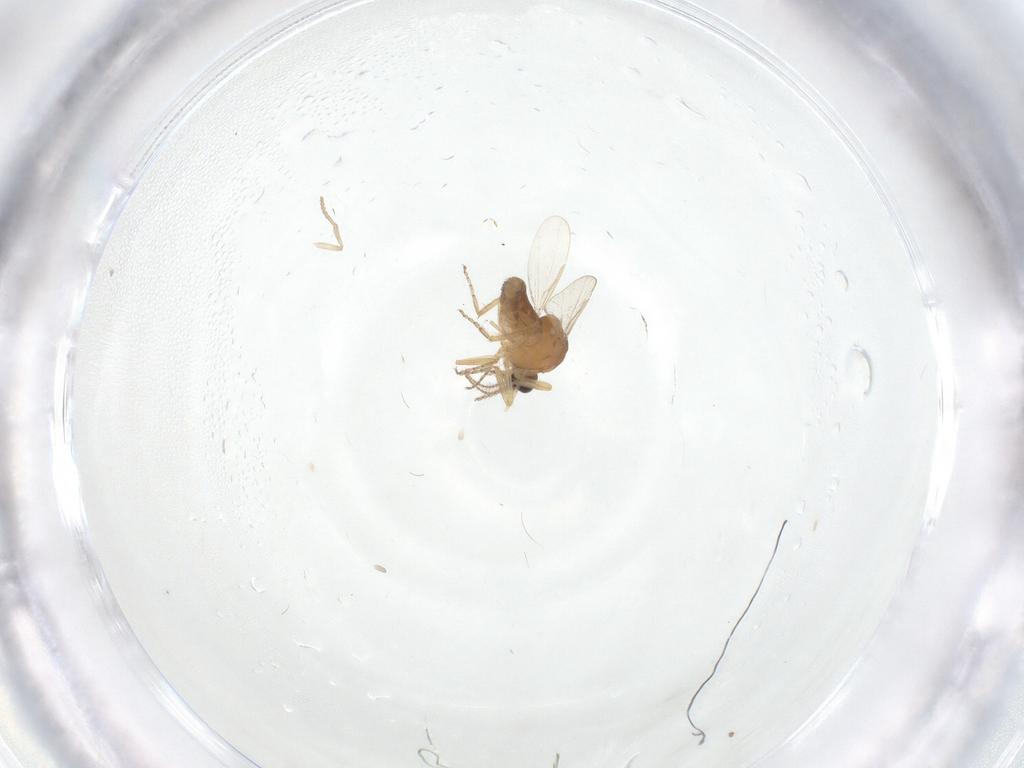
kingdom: Animalia
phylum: Arthropoda
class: Insecta
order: Diptera
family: Ceratopogonidae
